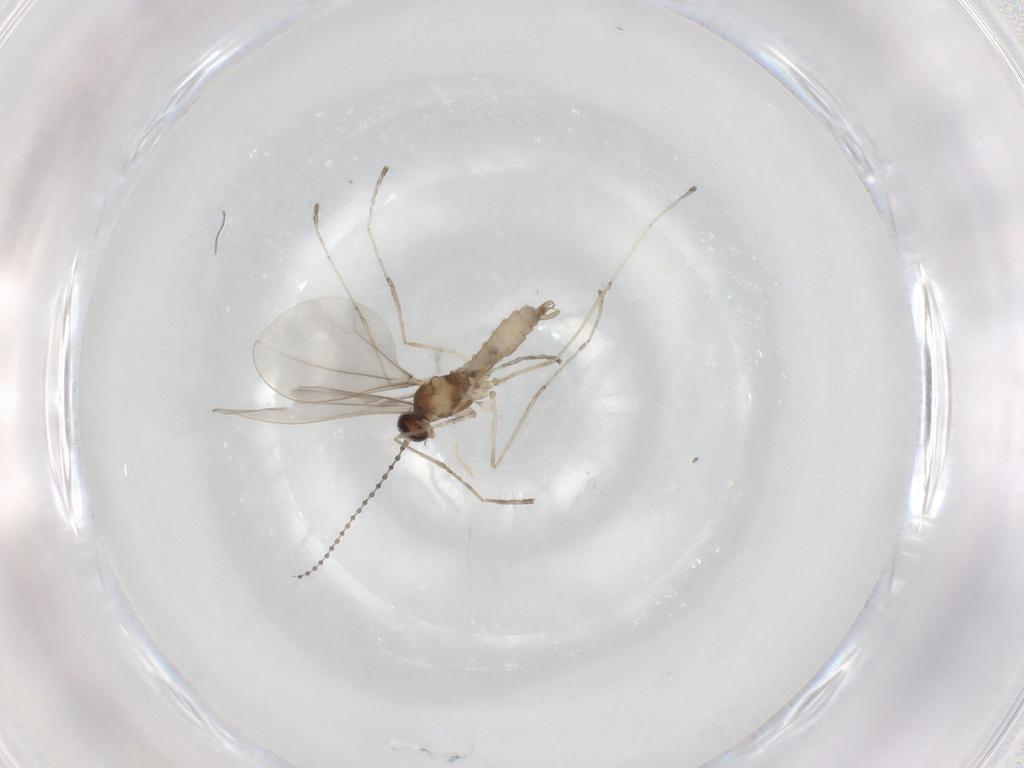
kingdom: Animalia
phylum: Arthropoda
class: Insecta
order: Diptera
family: Cecidomyiidae
